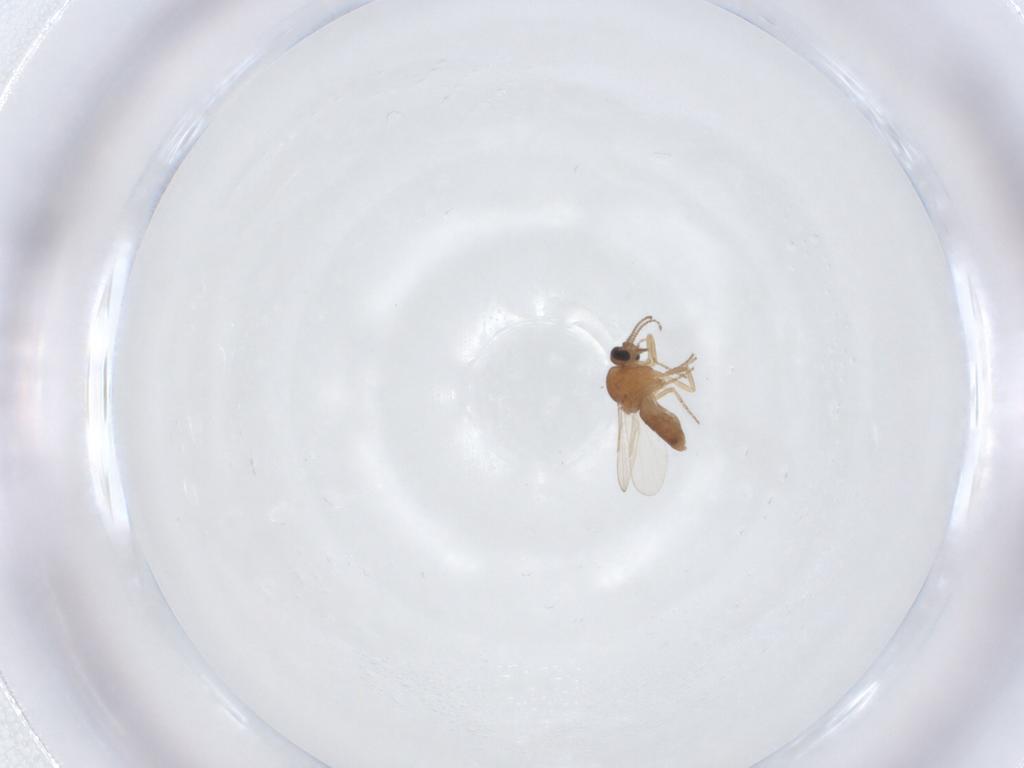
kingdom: Animalia
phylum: Arthropoda
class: Insecta
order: Diptera
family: Ceratopogonidae
